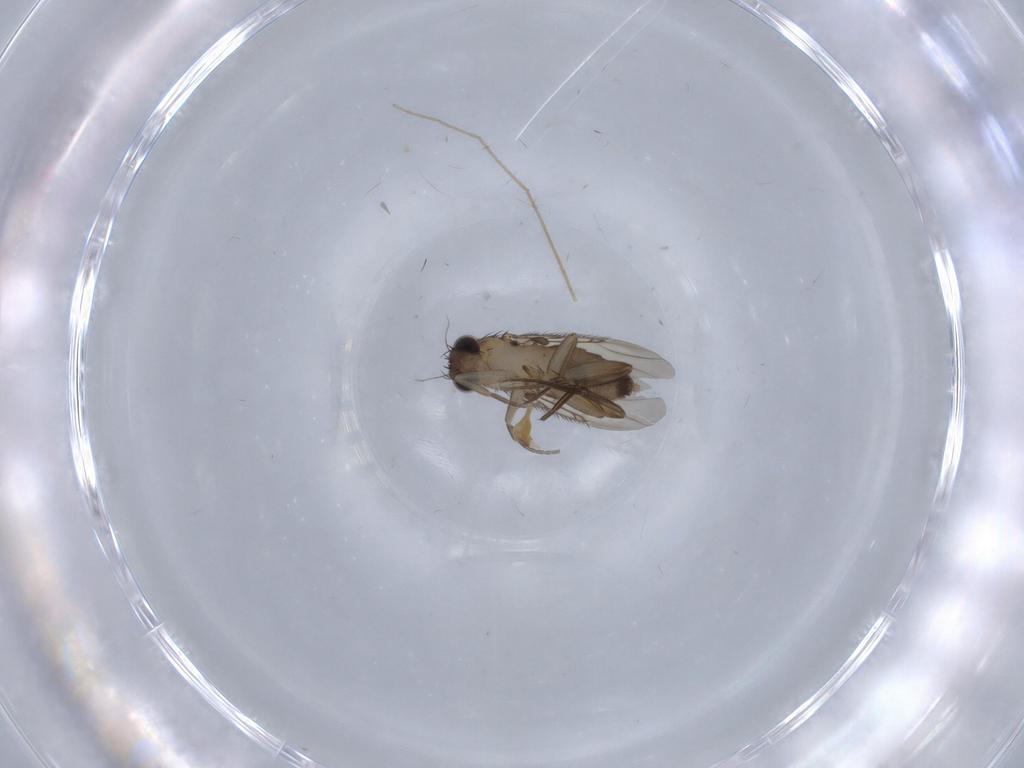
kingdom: Animalia
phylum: Arthropoda
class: Insecta
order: Diptera
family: Phoridae
